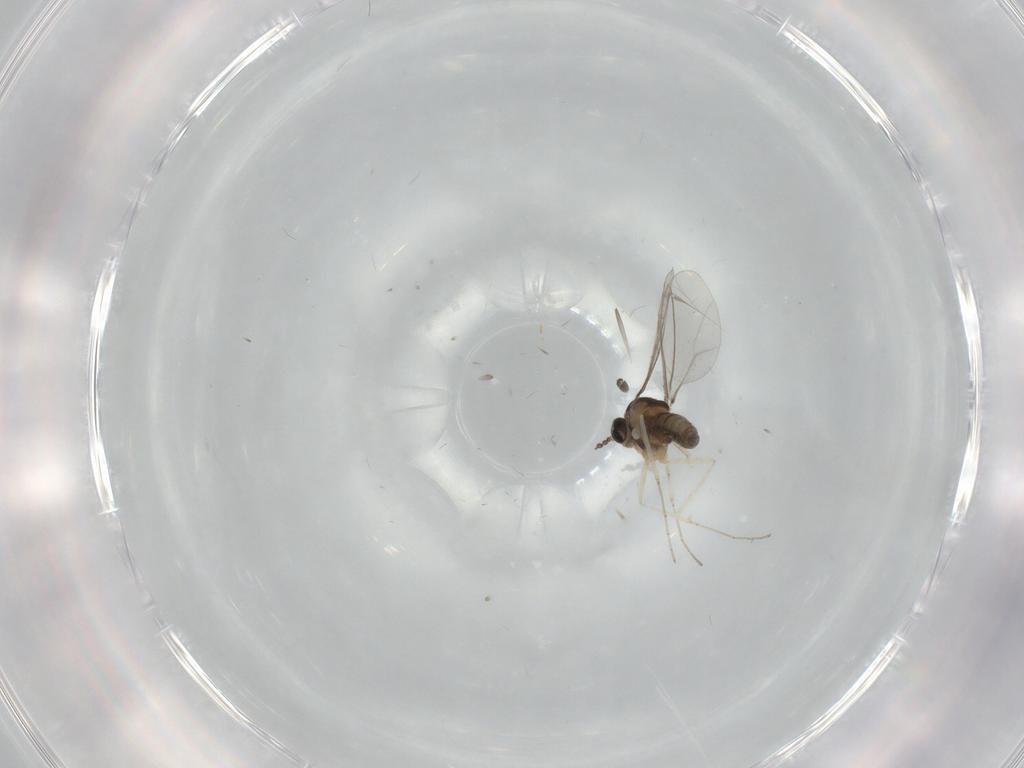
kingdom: Animalia
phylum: Arthropoda
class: Insecta
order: Diptera
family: Cecidomyiidae
